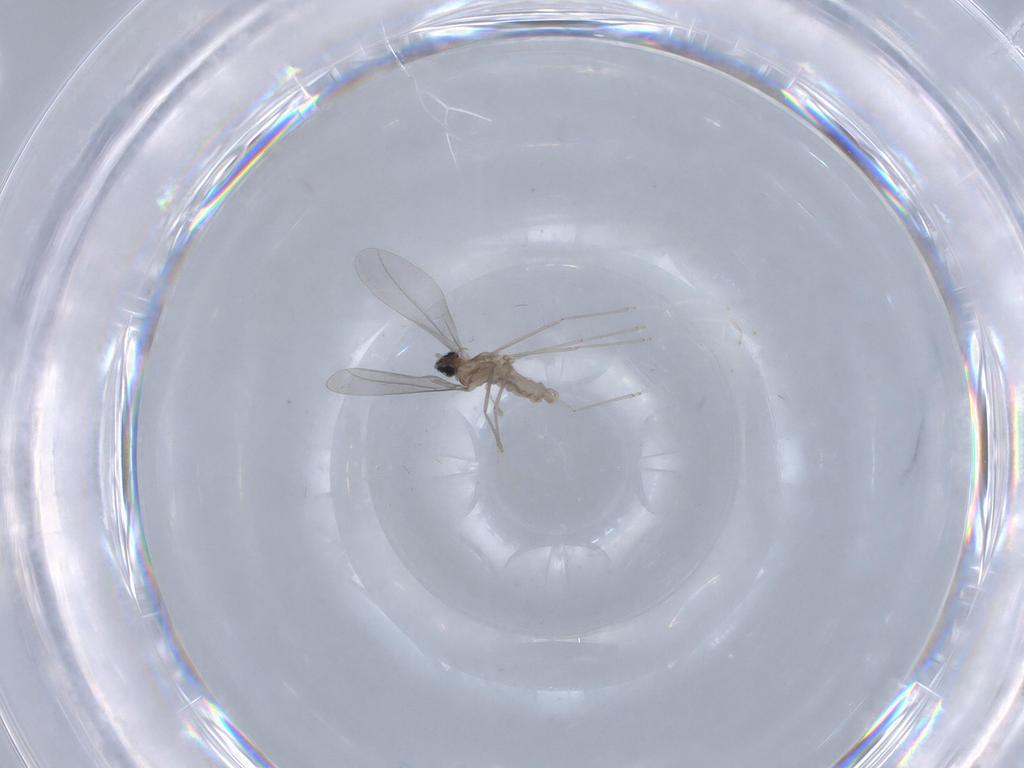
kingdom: Animalia
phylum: Arthropoda
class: Insecta
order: Diptera
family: Cecidomyiidae
